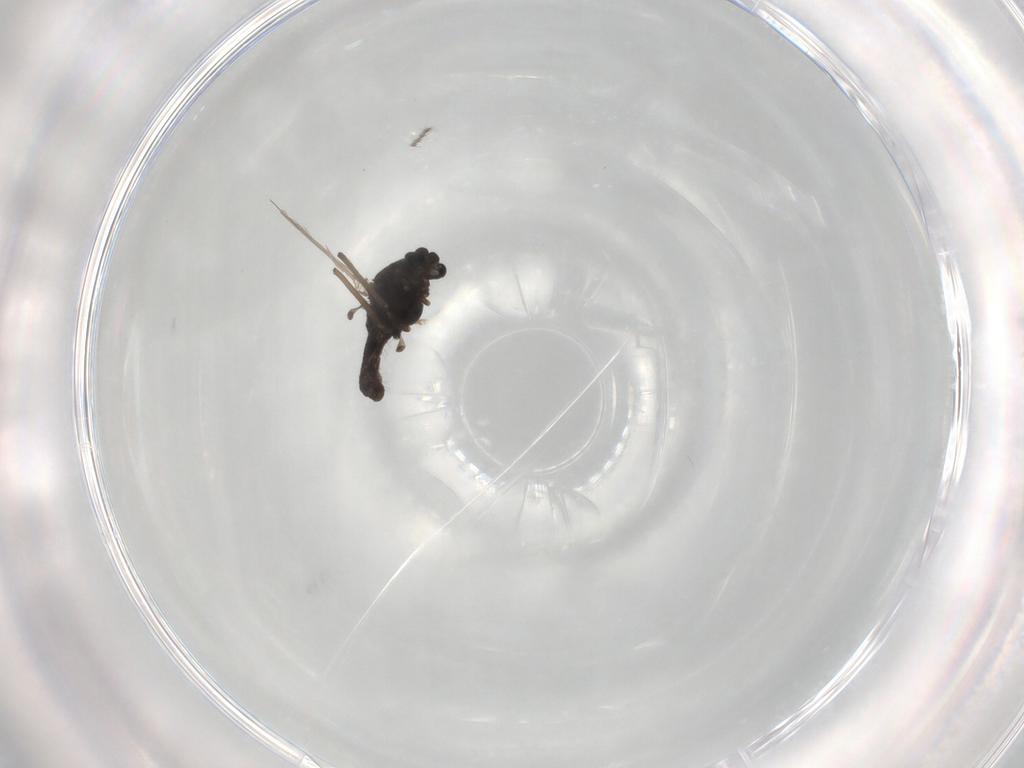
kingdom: Animalia
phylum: Arthropoda
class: Insecta
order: Diptera
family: Chironomidae
